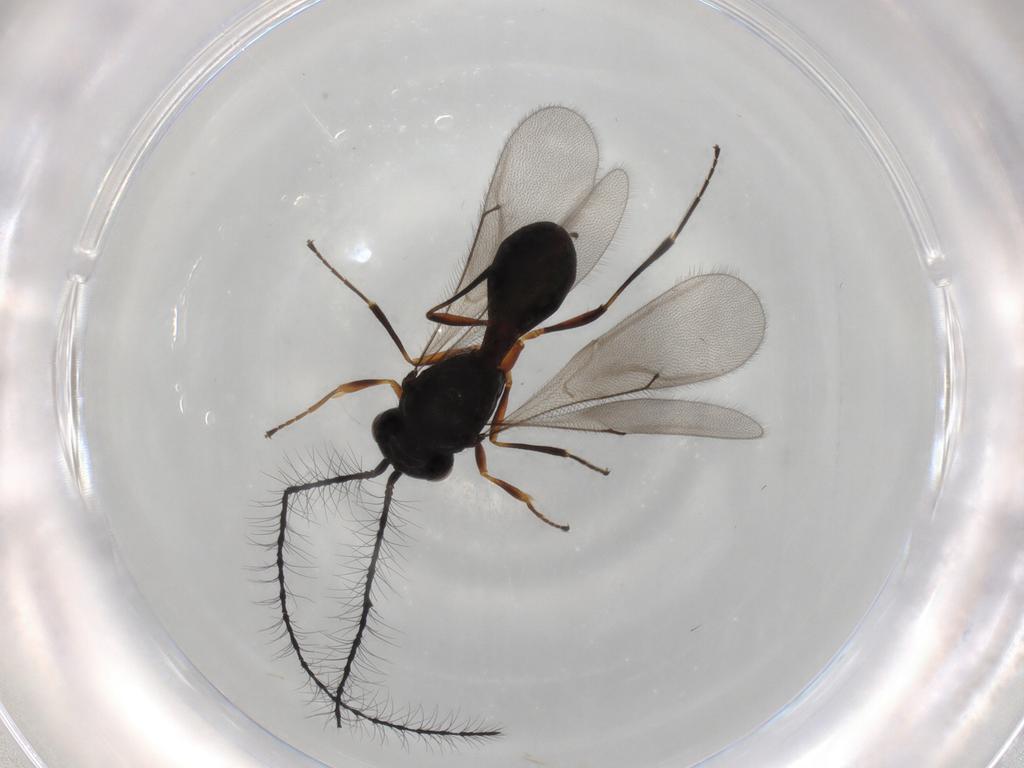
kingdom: Animalia
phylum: Arthropoda
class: Insecta
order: Hymenoptera
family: Scelionidae
